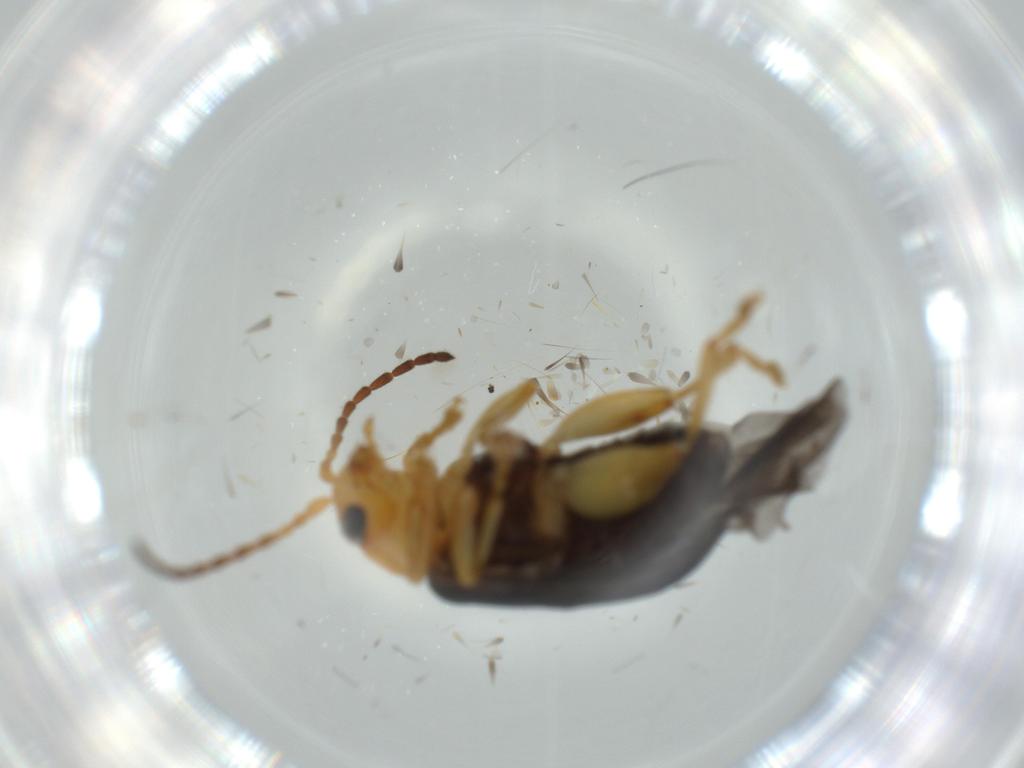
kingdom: Animalia
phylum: Arthropoda
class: Insecta
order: Coleoptera
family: Chrysomelidae
